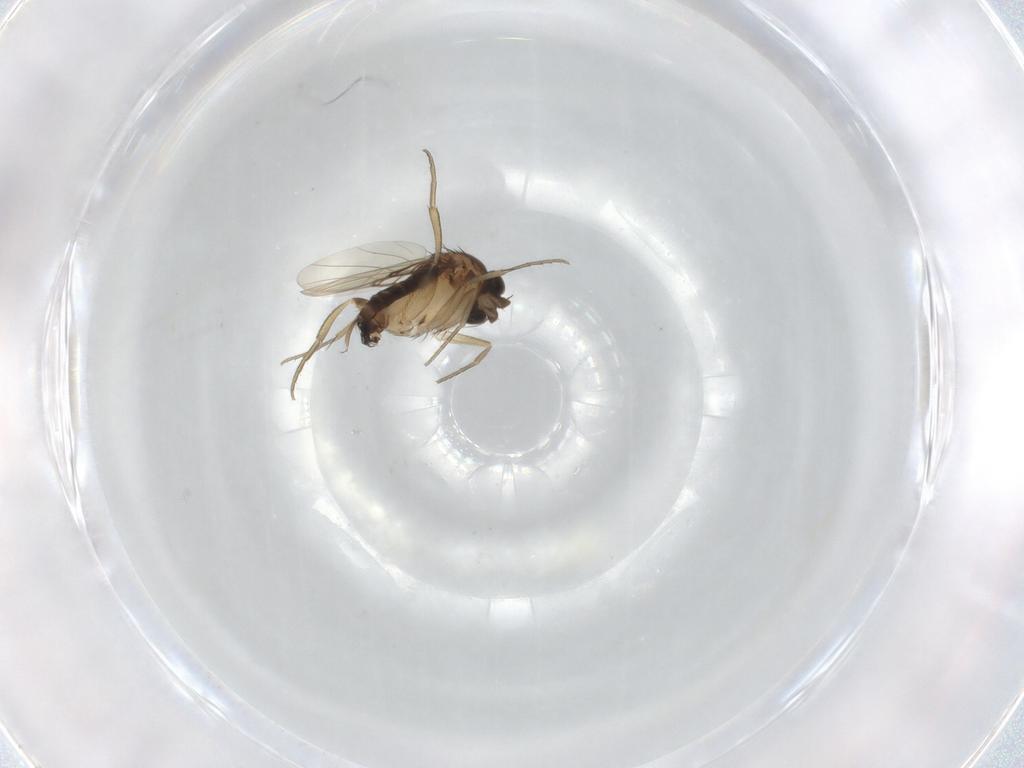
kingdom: Animalia
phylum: Arthropoda
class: Insecta
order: Diptera
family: Phoridae
